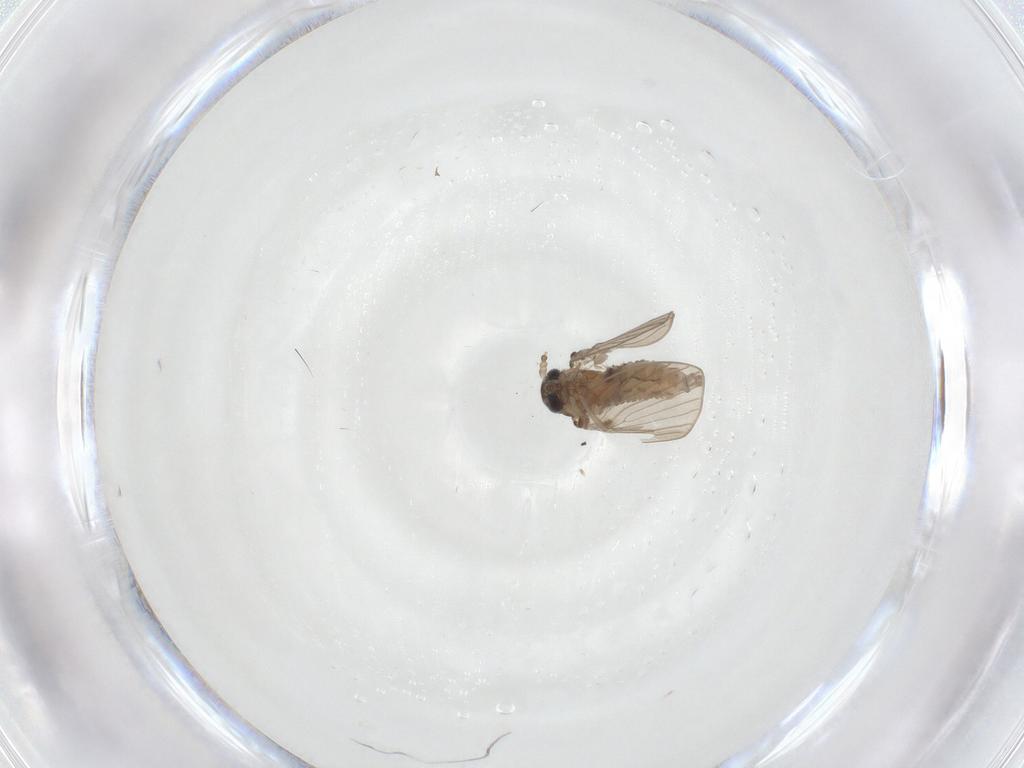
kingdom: Animalia
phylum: Arthropoda
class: Insecta
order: Diptera
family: Psychodidae
